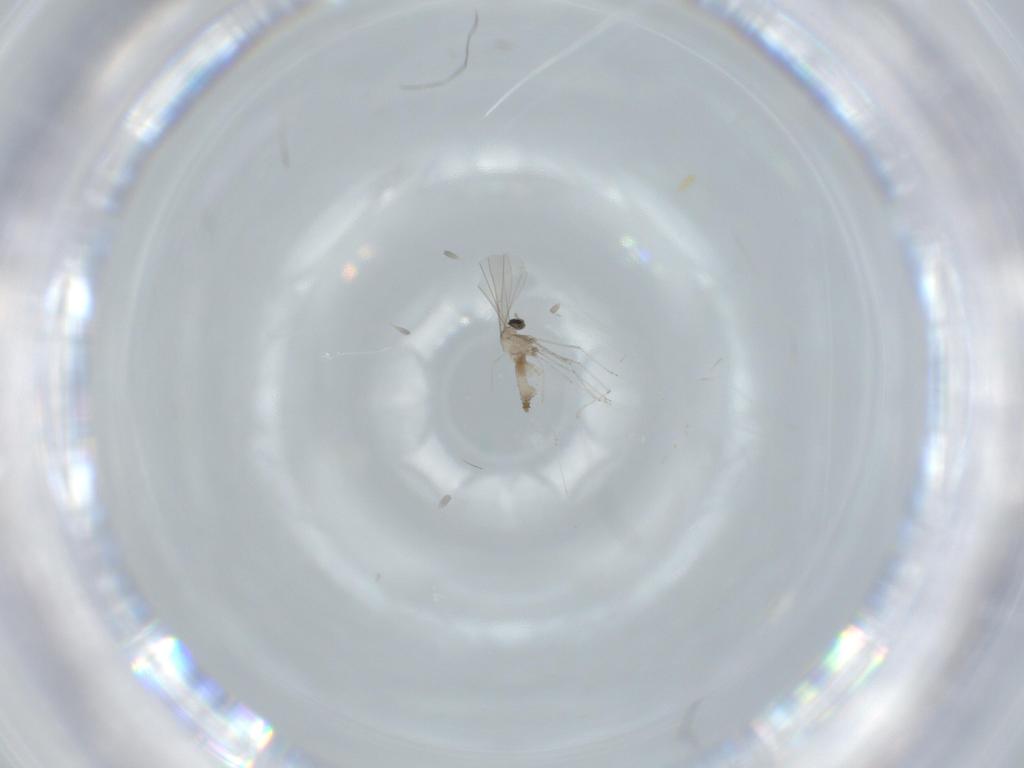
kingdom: Animalia
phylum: Arthropoda
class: Insecta
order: Diptera
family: Cecidomyiidae
